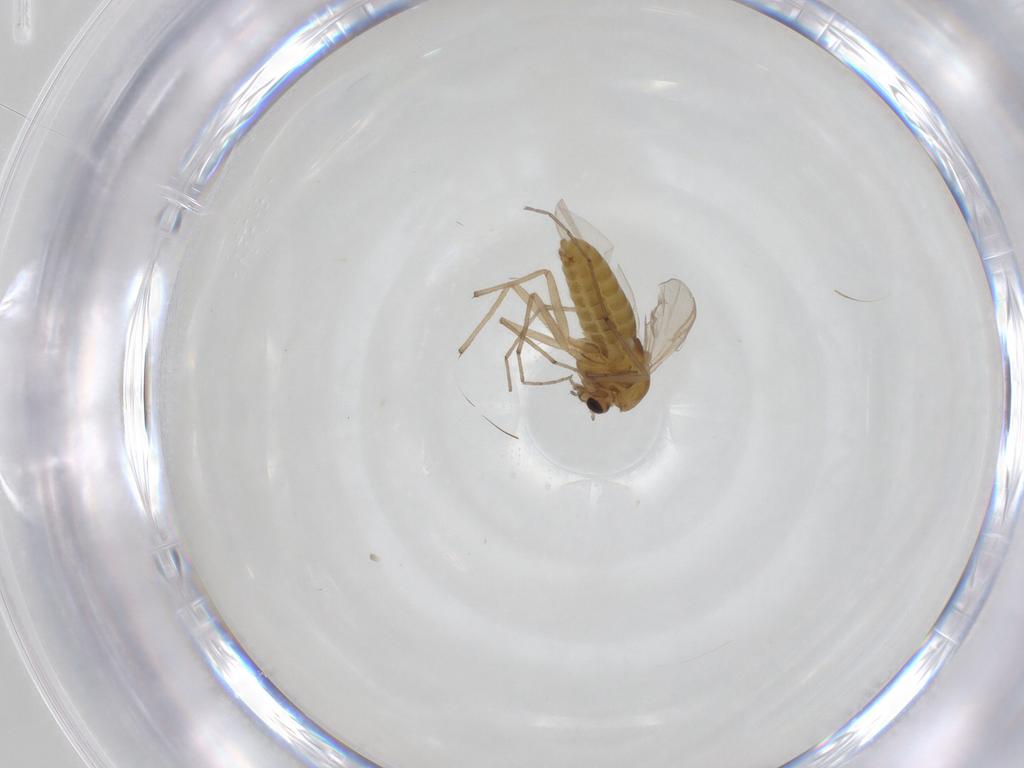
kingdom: Animalia
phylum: Arthropoda
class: Insecta
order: Diptera
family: Chironomidae
